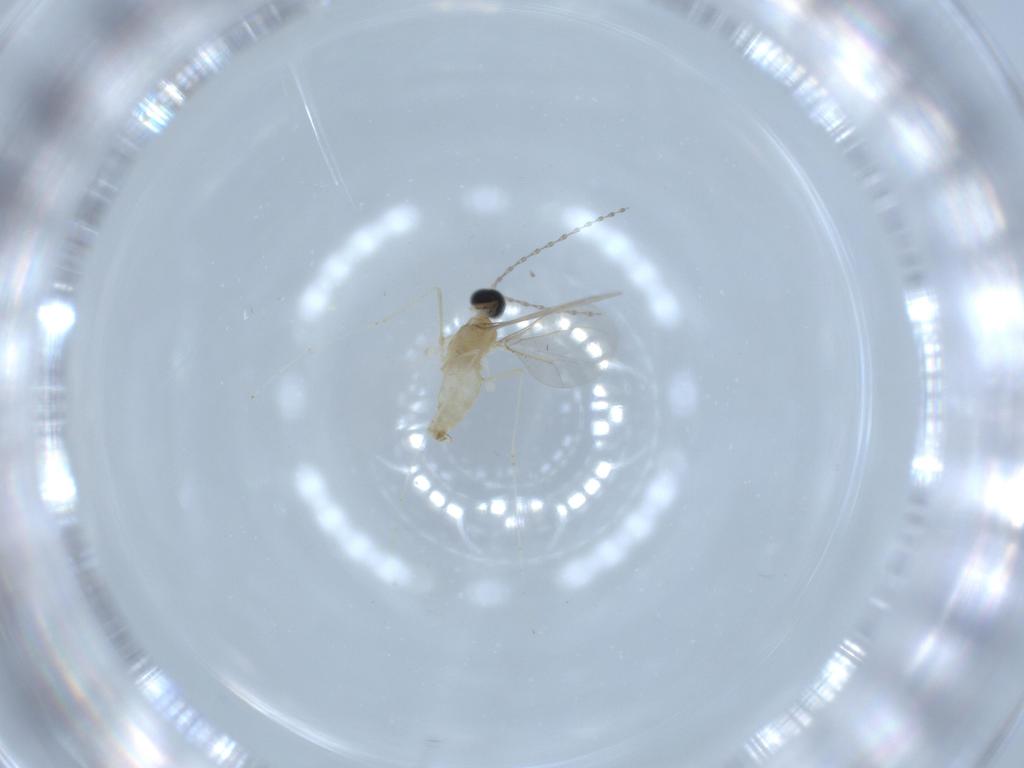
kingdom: Animalia
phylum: Arthropoda
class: Insecta
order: Diptera
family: Cecidomyiidae
